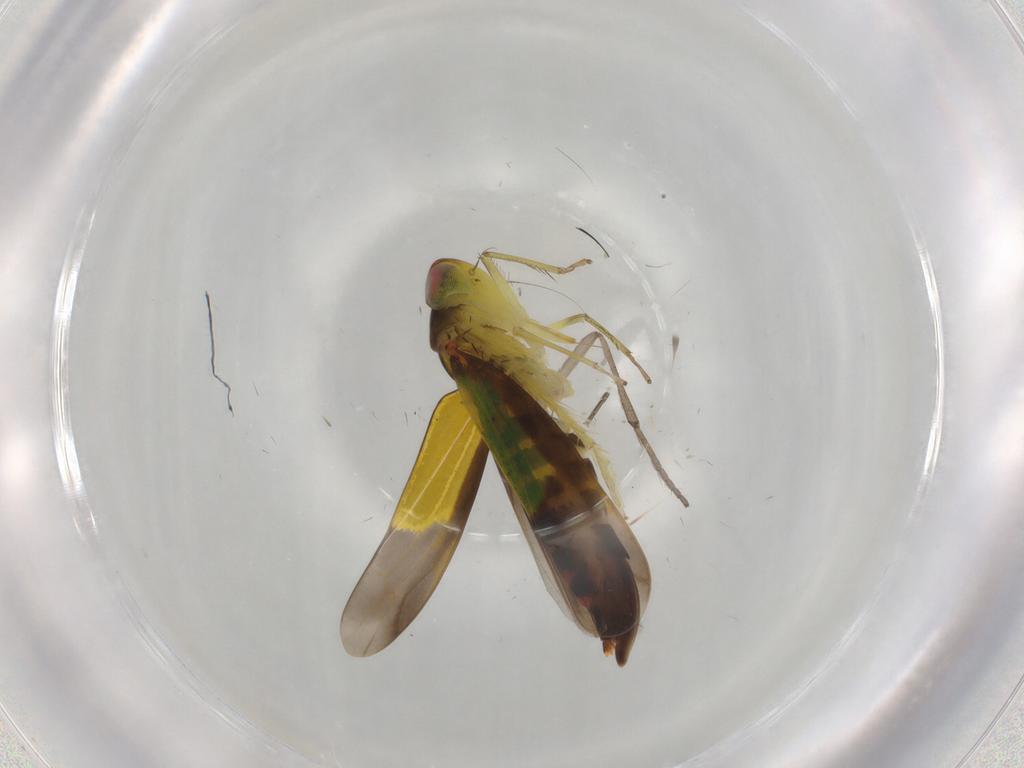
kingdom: Animalia
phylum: Arthropoda
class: Insecta
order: Hemiptera
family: Cicadellidae
